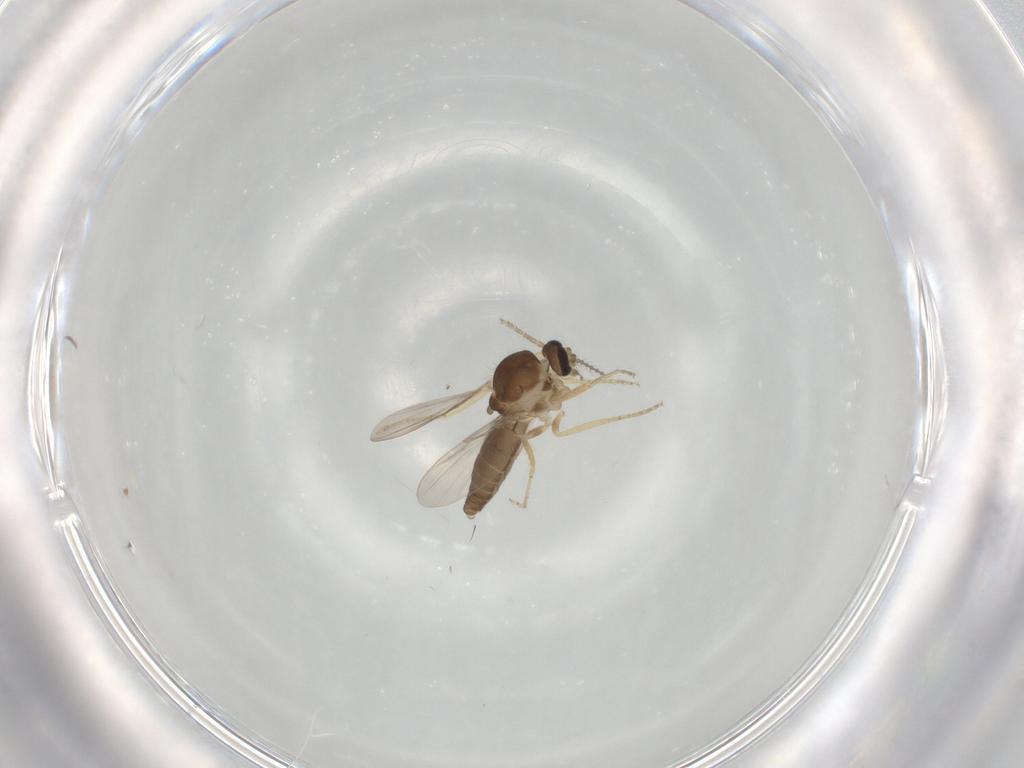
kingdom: Animalia
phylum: Arthropoda
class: Insecta
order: Diptera
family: Ceratopogonidae
